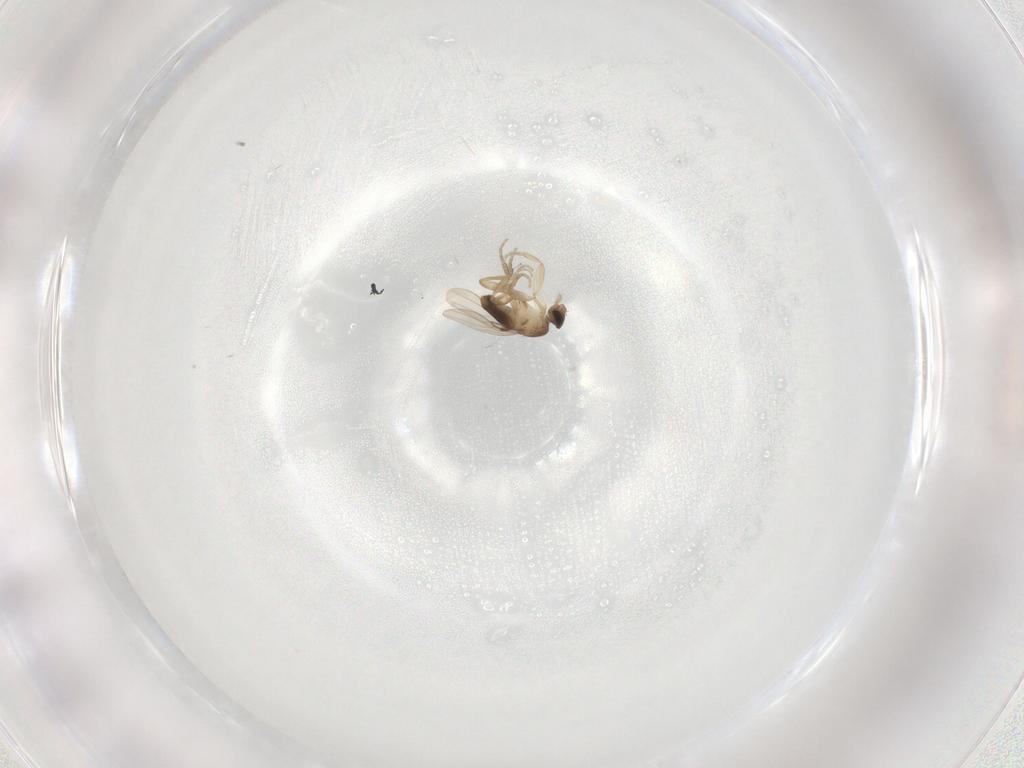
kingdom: Animalia
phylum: Arthropoda
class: Insecta
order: Diptera
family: Phoridae
